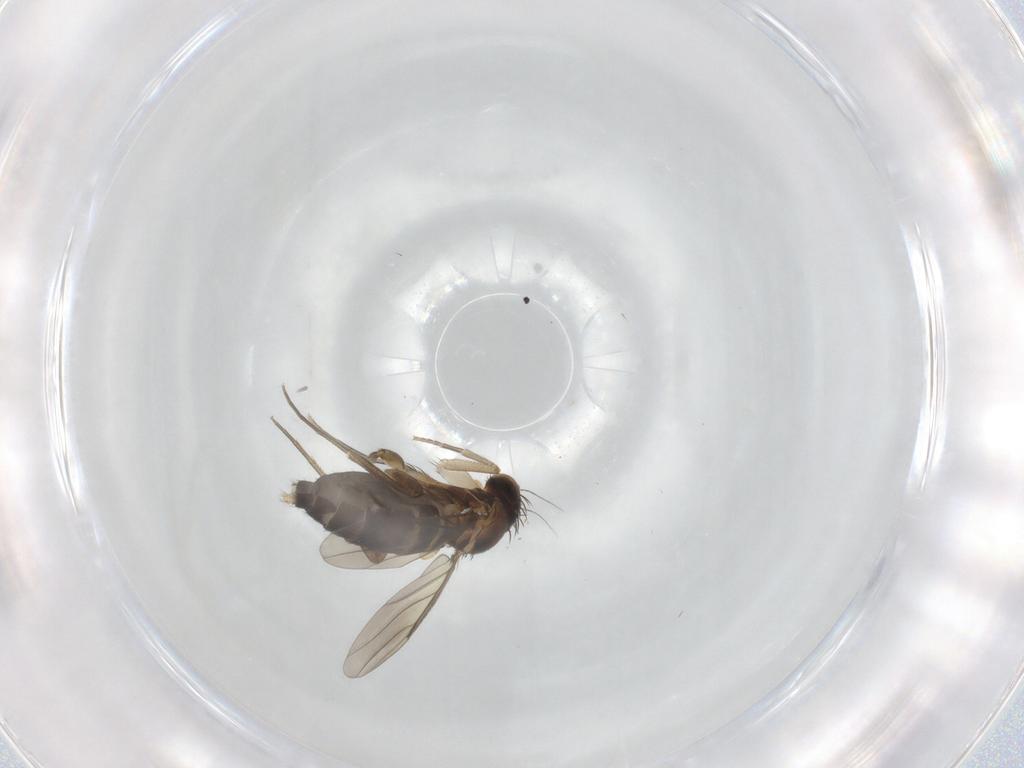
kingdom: Animalia
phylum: Arthropoda
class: Insecta
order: Diptera
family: Phoridae
